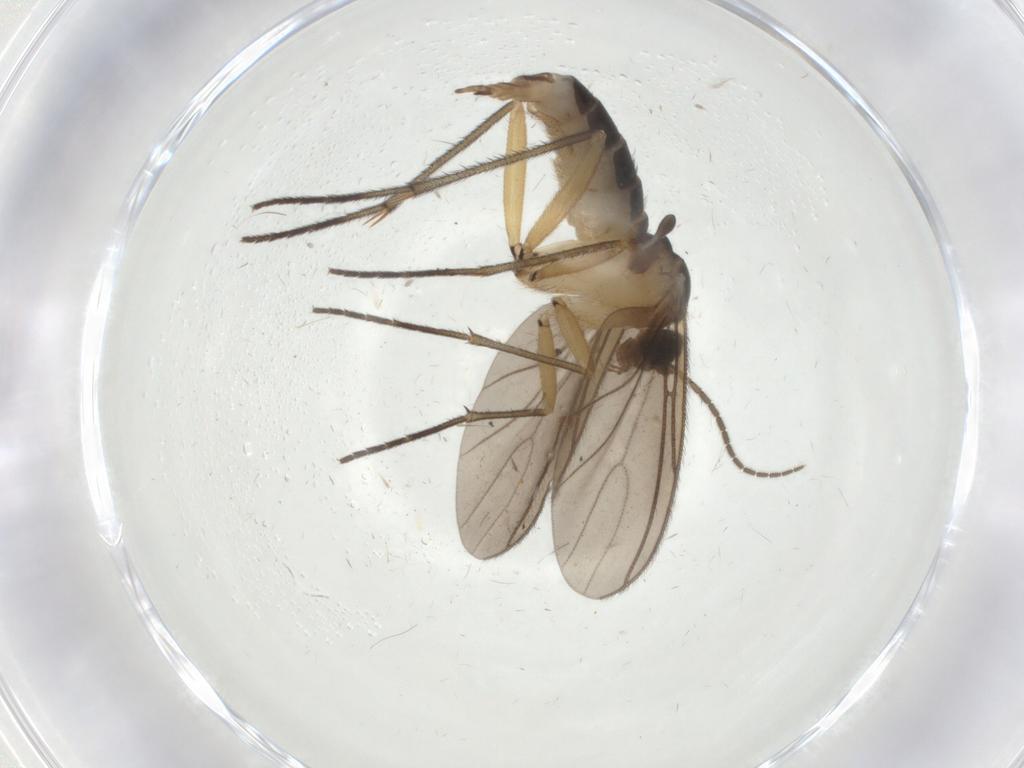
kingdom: Animalia
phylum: Arthropoda
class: Insecta
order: Diptera
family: Sciaridae
